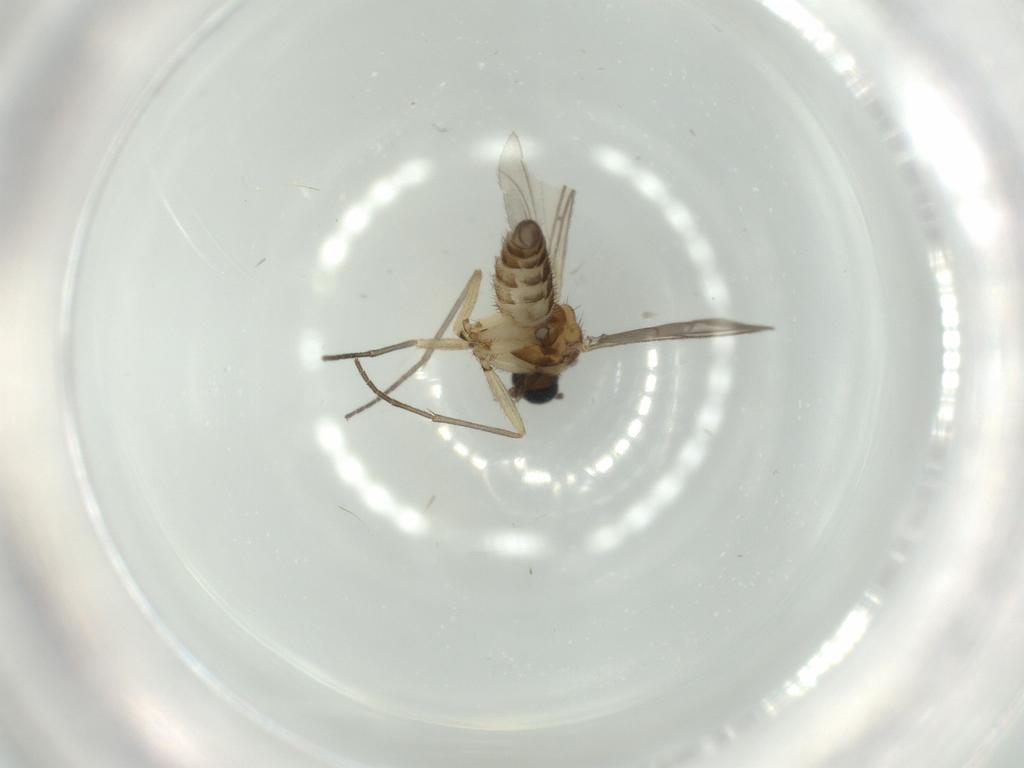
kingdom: Animalia
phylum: Arthropoda
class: Insecta
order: Diptera
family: Sciaridae
